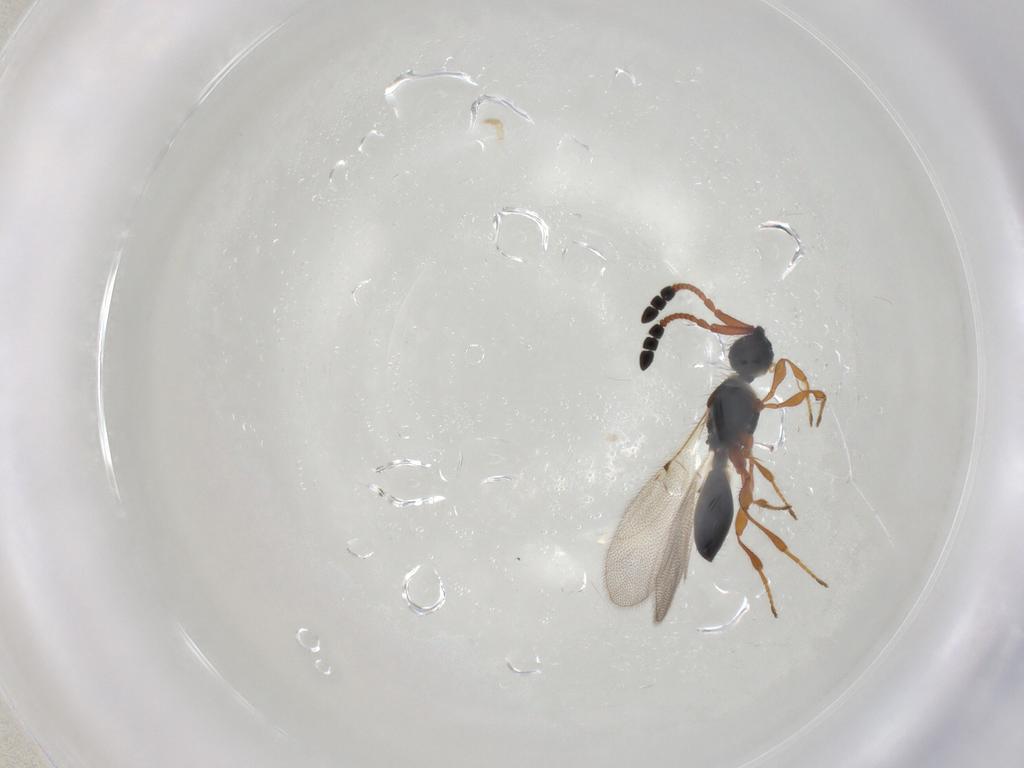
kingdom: Animalia
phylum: Arthropoda
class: Insecta
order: Hymenoptera
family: Diapriidae
